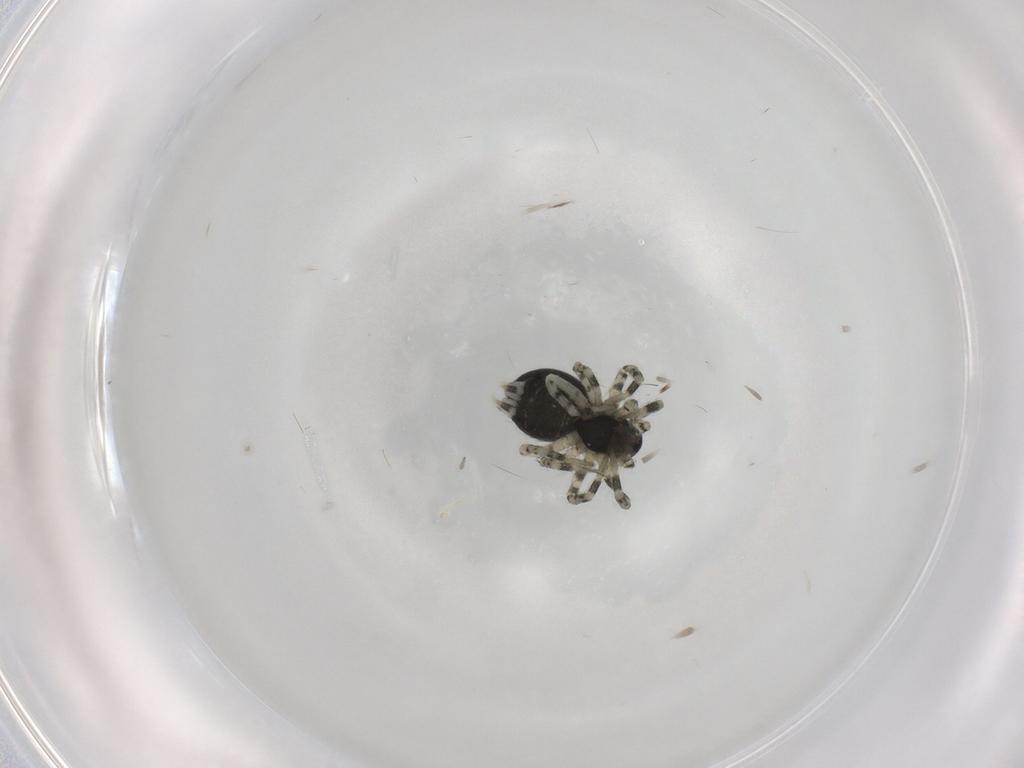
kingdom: Animalia
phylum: Arthropoda
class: Arachnida
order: Araneae
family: Hahniidae
